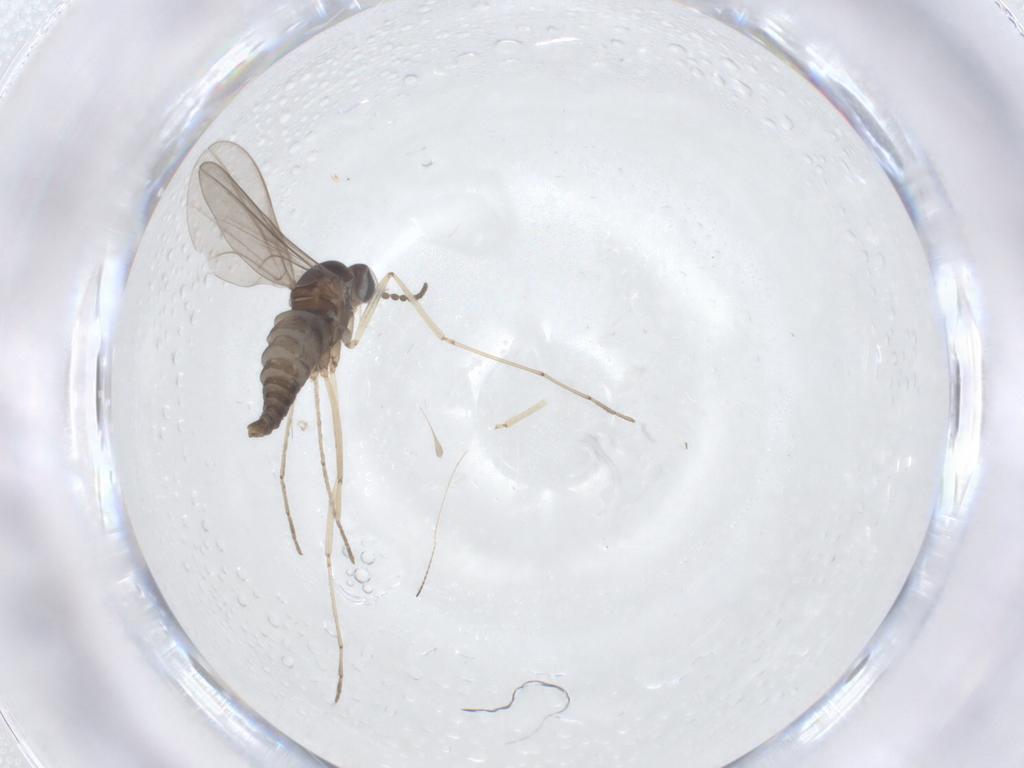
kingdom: Animalia
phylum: Arthropoda
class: Insecta
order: Diptera
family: Cecidomyiidae
